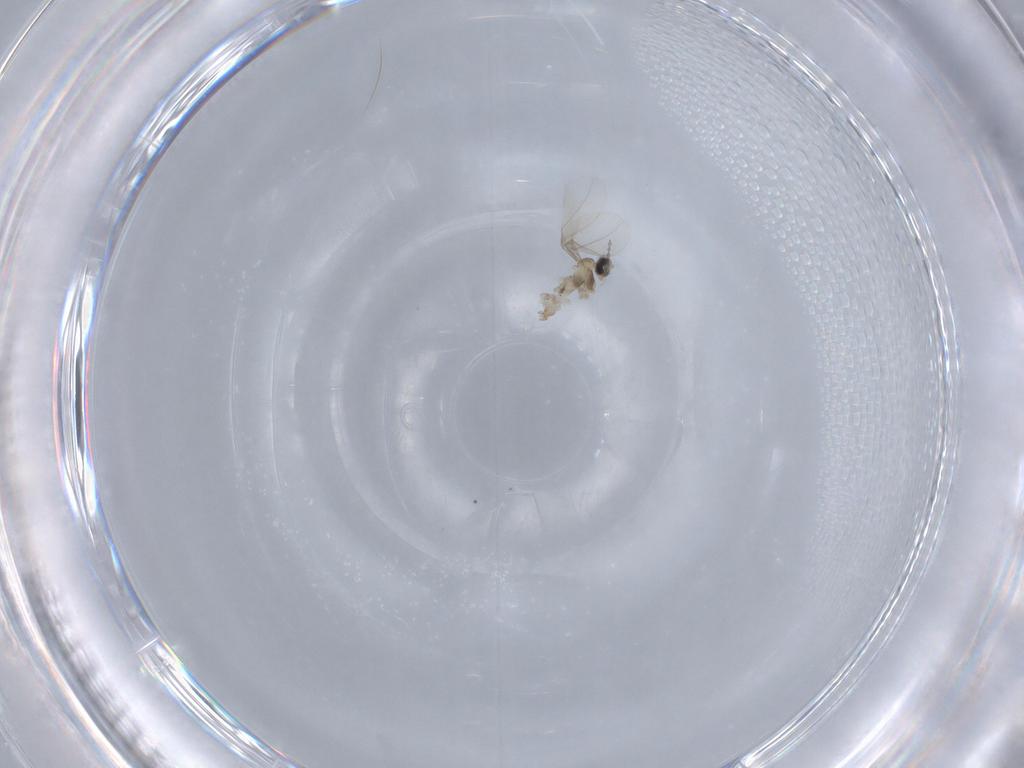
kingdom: Animalia
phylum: Arthropoda
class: Insecta
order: Diptera
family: Cecidomyiidae
